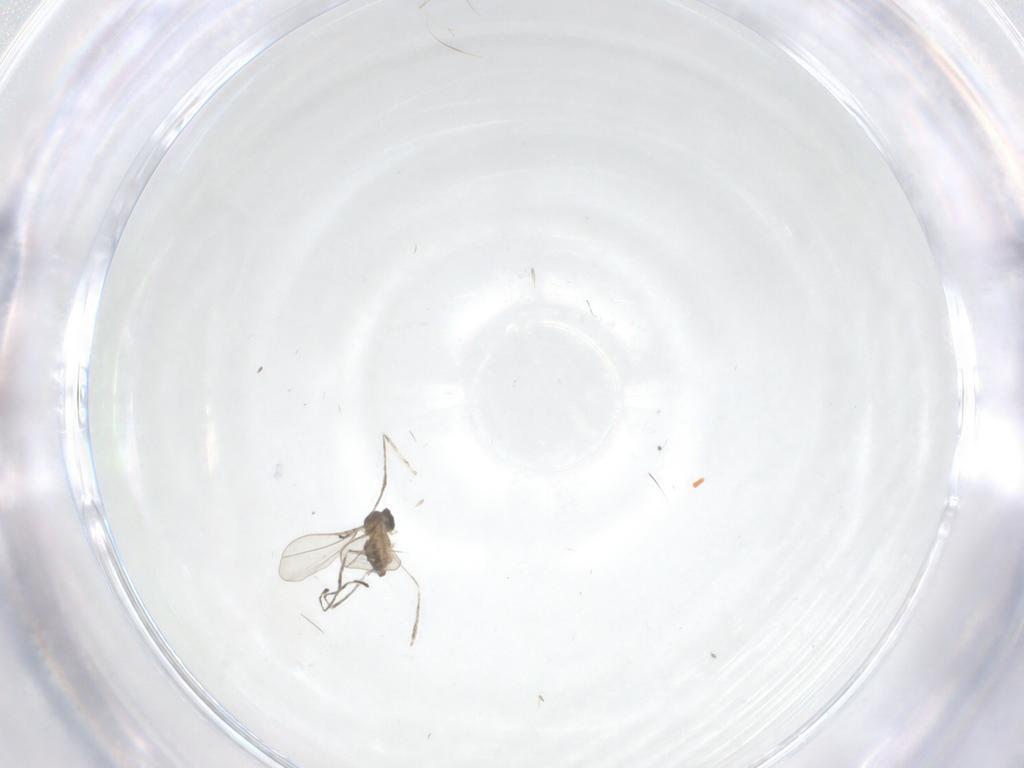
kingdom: Animalia
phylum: Arthropoda
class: Insecta
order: Diptera
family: Cecidomyiidae
